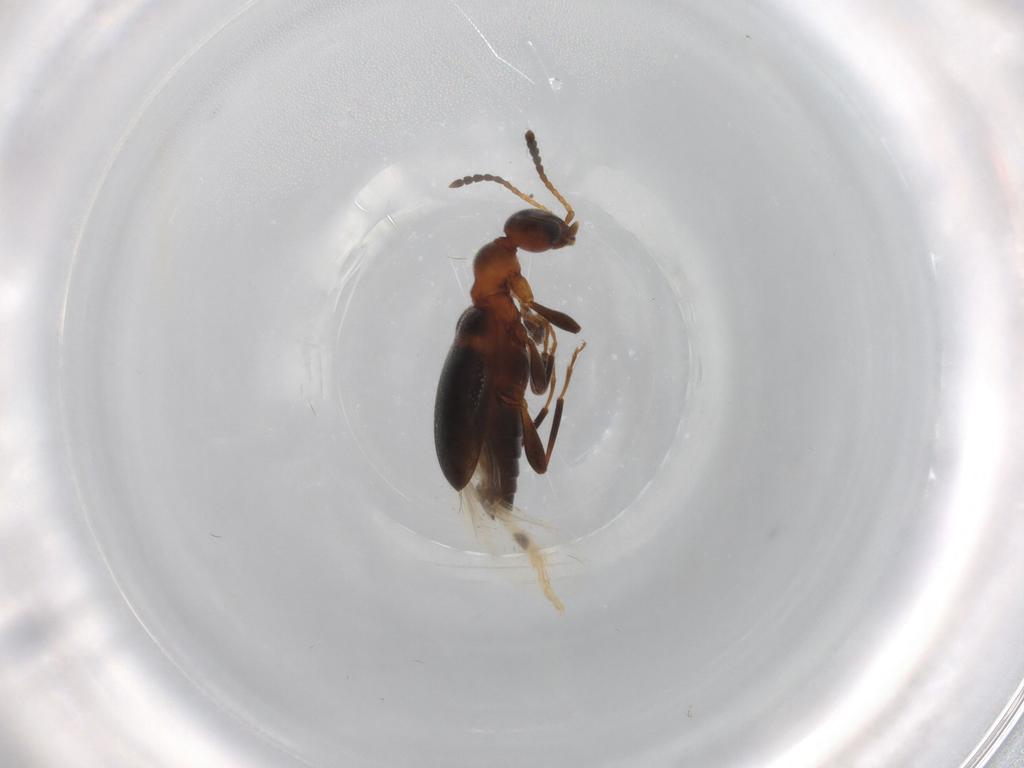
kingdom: Animalia
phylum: Arthropoda
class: Insecta
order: Coleoptera
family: Anthicidae
